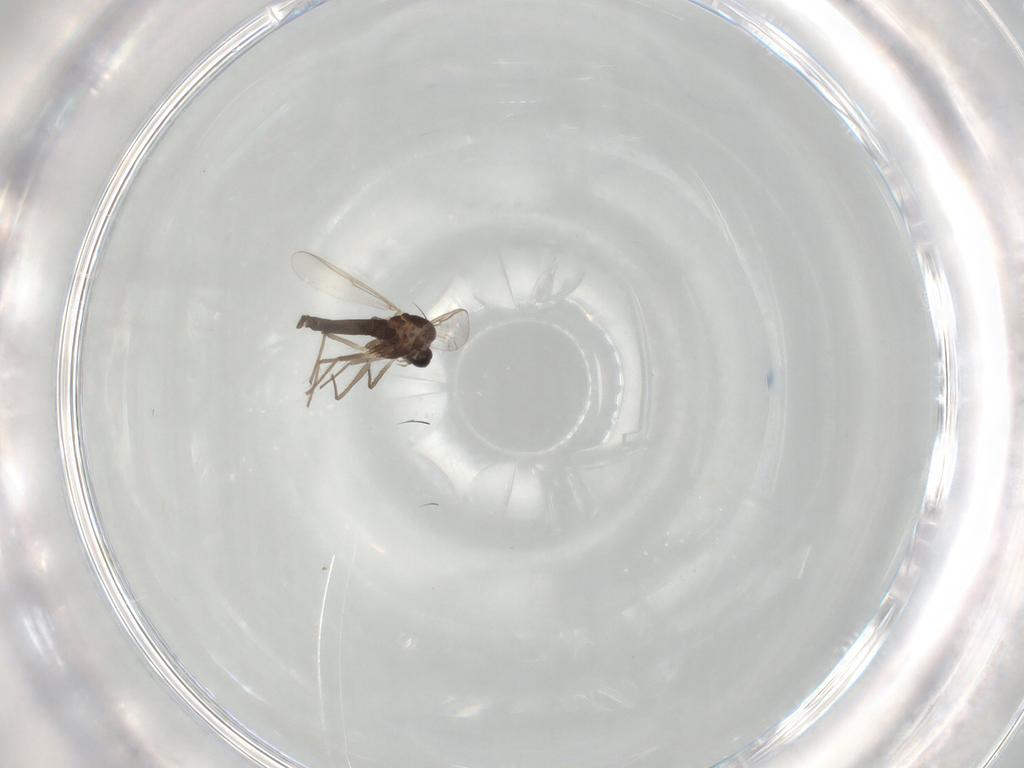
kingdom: Animalia
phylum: Arthropoda
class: Insecta
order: Diptera
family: Chironomidae
